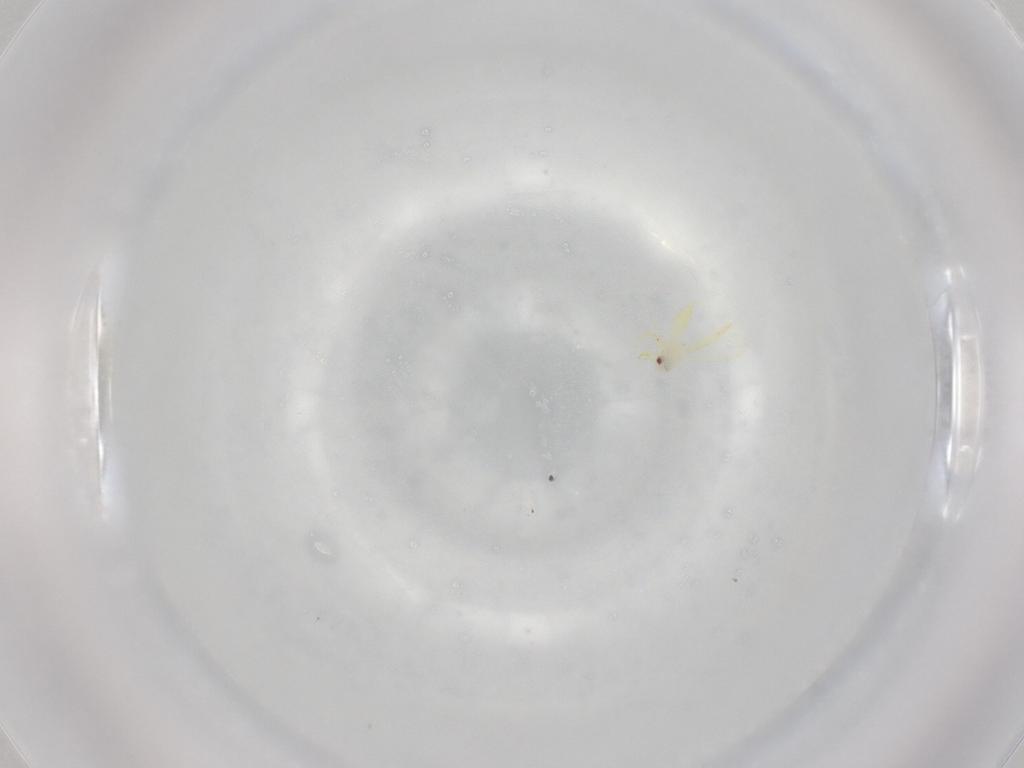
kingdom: Animalia
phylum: Arthropoda
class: Insecta
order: Hemiptera
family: Aleyrodidae
